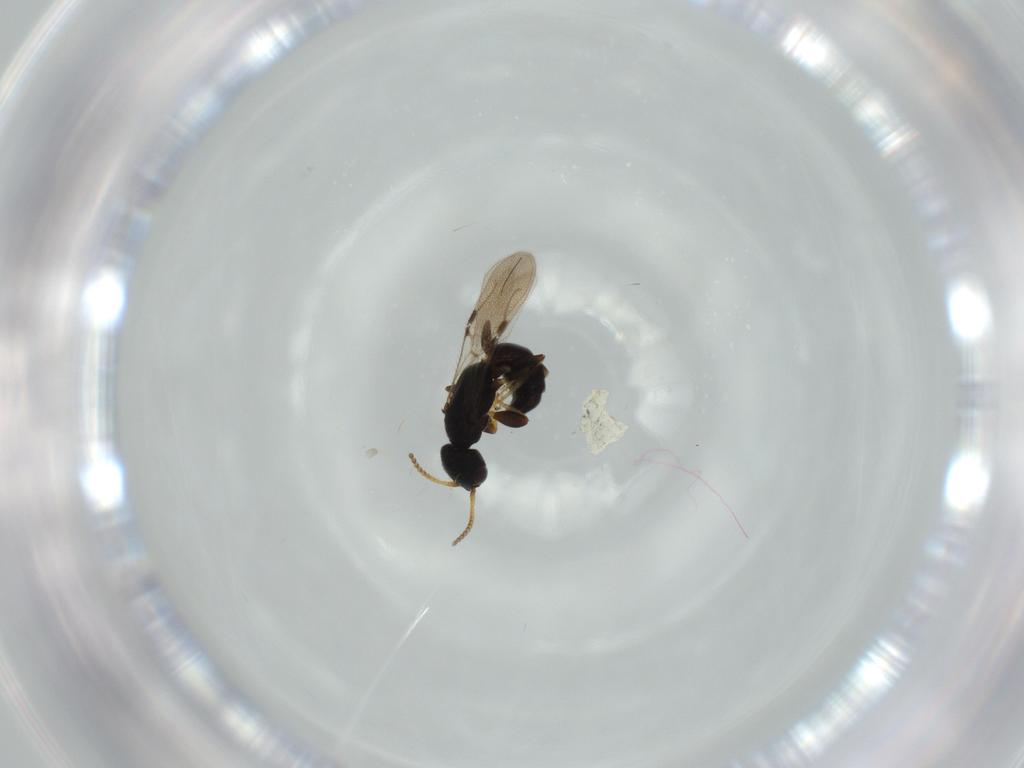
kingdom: Animalia
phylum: Arthropoda
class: Insecta
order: Hymenoptera
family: Bethylidae
